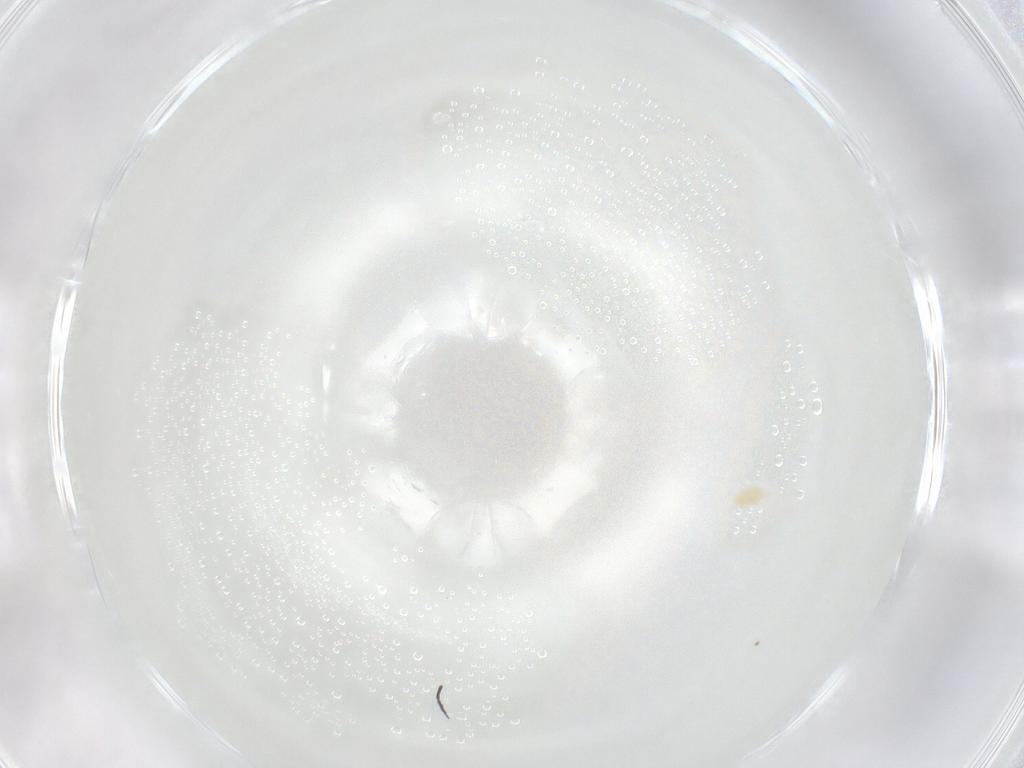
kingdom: Animalia
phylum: Arthropoda
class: Arachnida
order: Trombidiformes
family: Eupodidae
